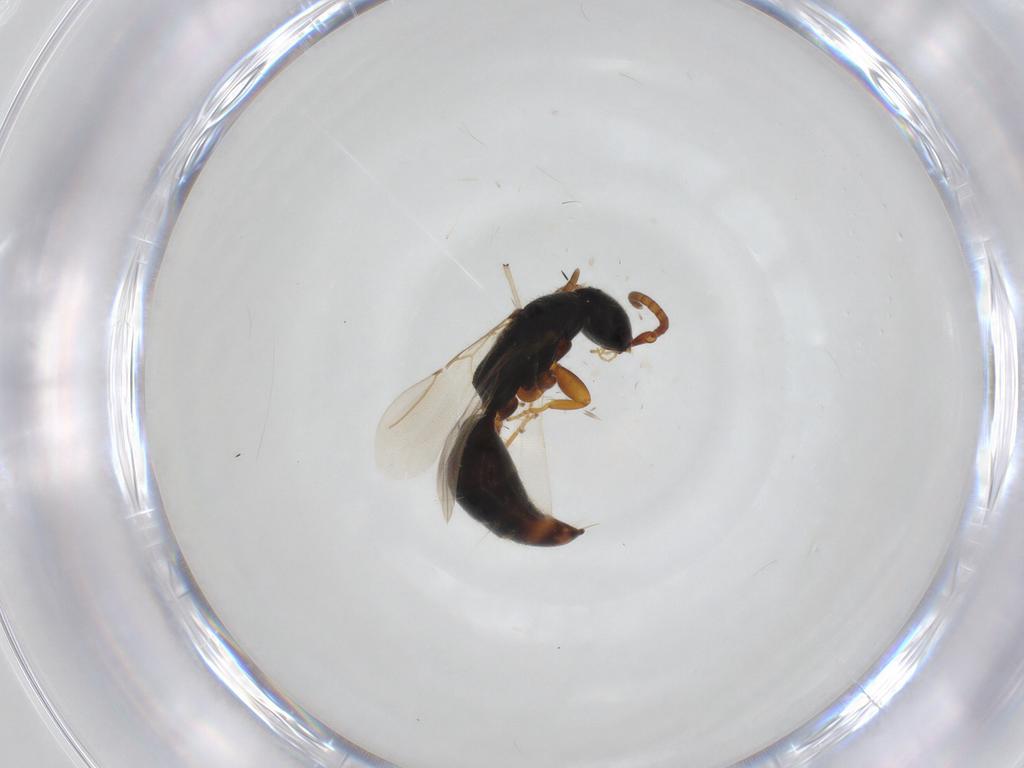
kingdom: Animalia
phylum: Arthropoda
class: Insecta
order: Hymenoptera
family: Bethylidae
